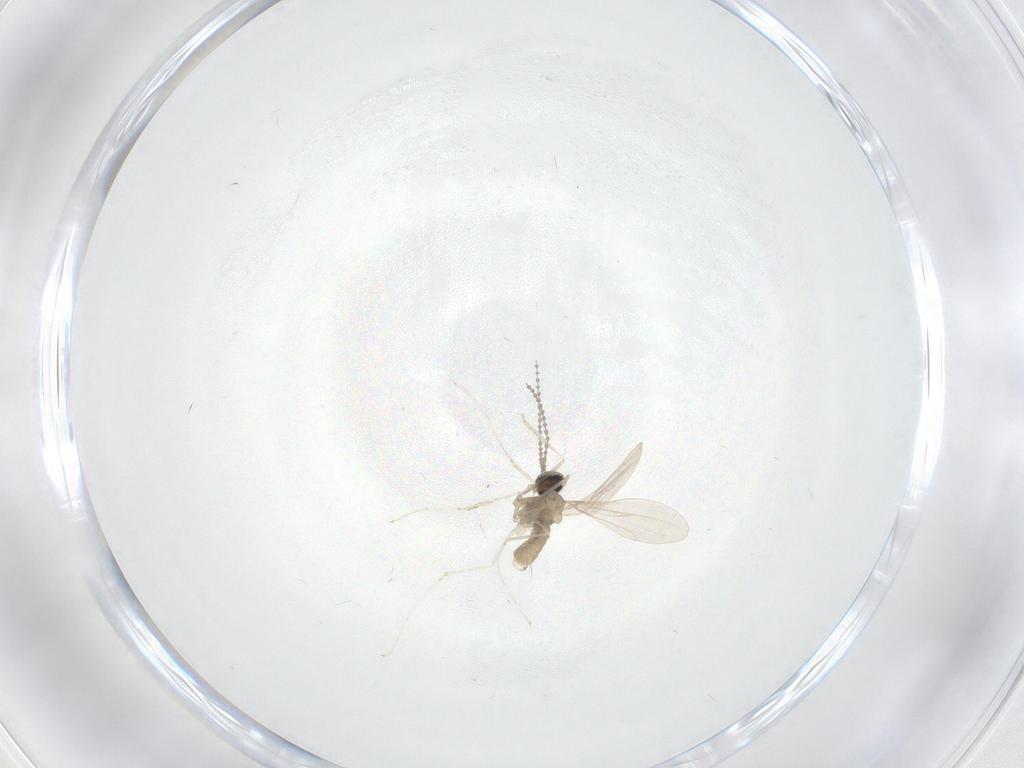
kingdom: Animalia
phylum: Arthropoda
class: Insecta
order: Diptera
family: Cecidomyiidae
